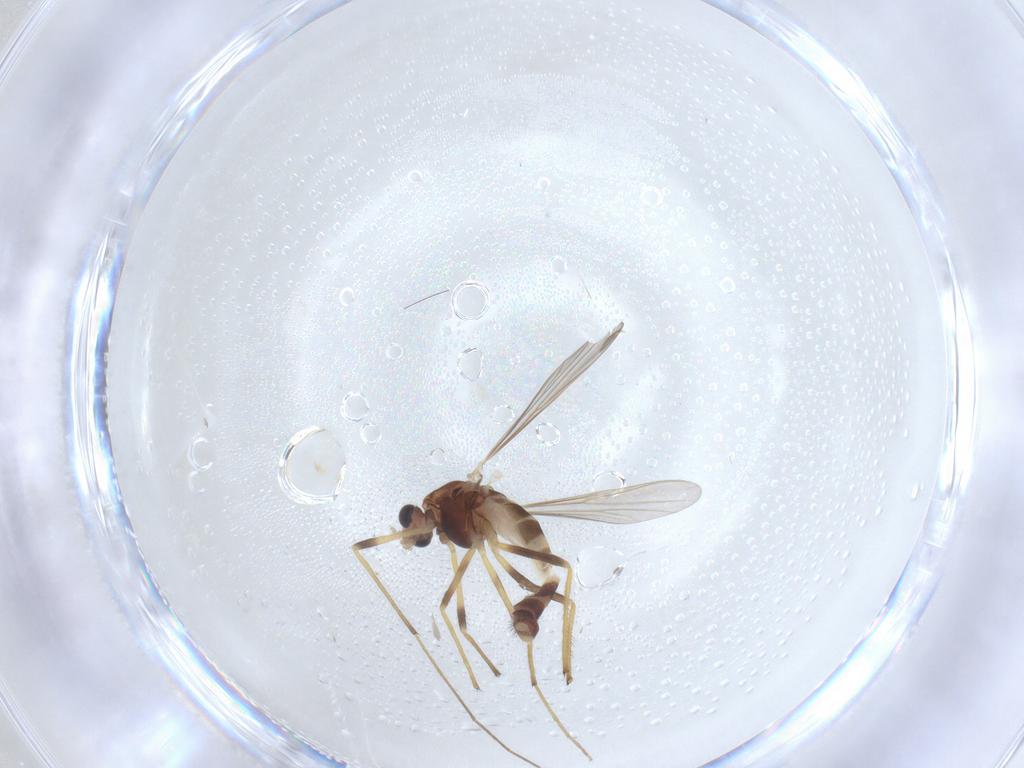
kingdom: Animalia
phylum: Arthropoda
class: Insecta
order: Diptera
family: Chironomidae
